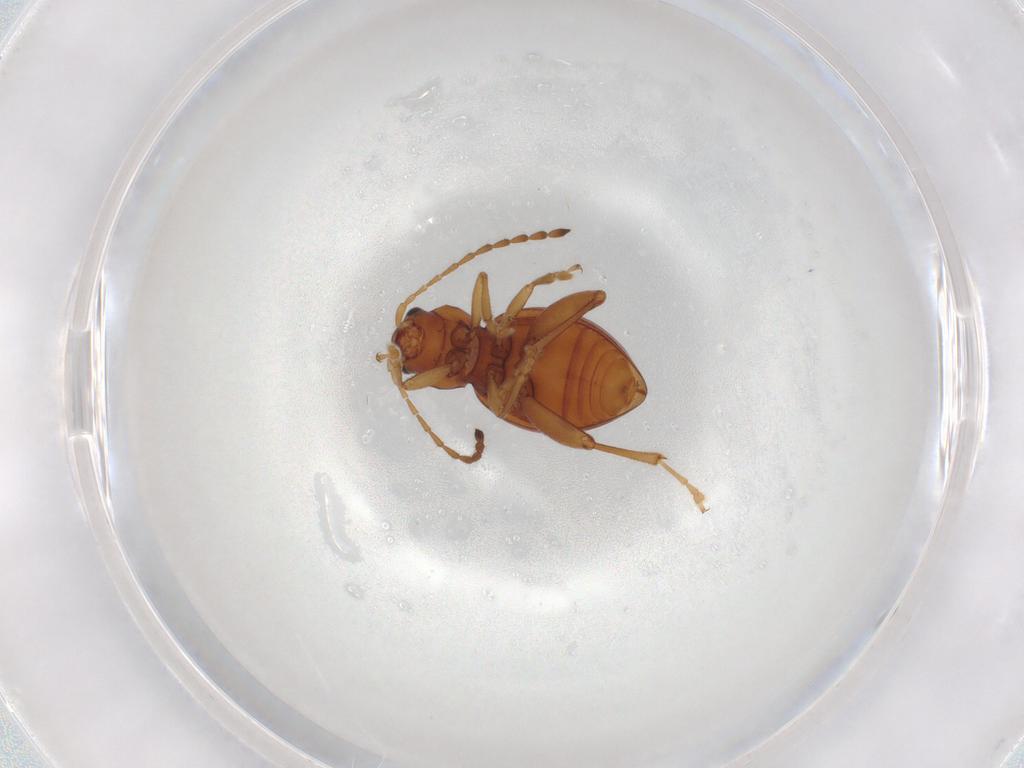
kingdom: Animalia
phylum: Arthropoda
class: Insecta
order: Coleoptera
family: Chrysomelidae
